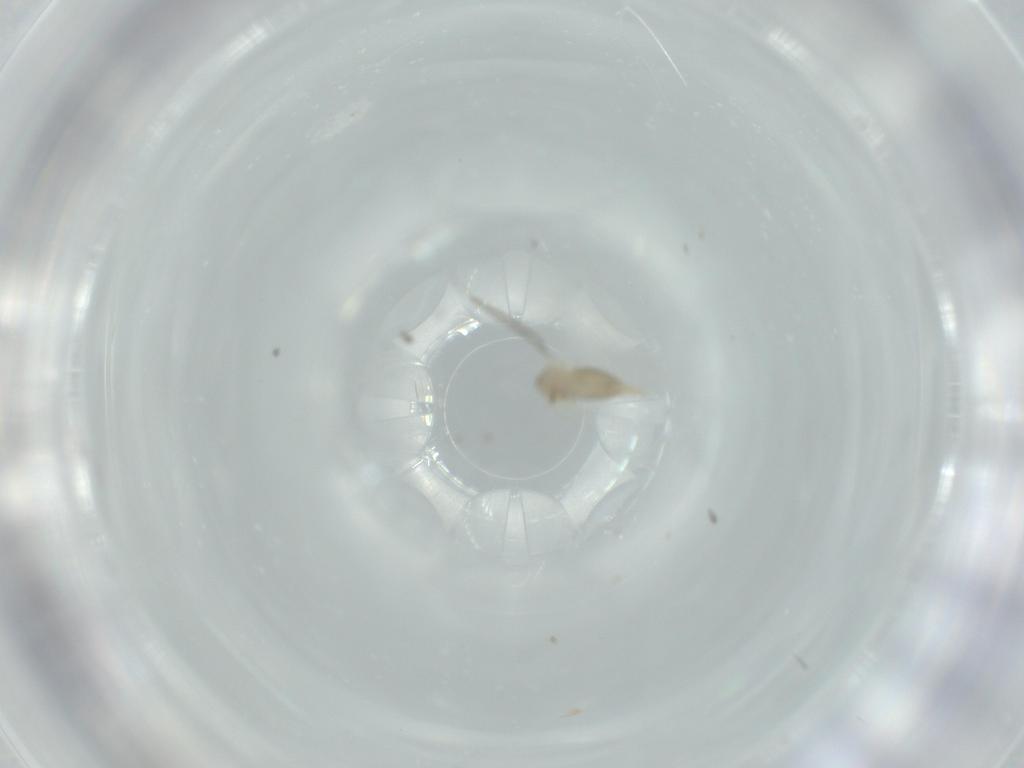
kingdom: Animalia
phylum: Arthropoda
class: Insecta
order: Diptera
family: Cecidomyiidae
